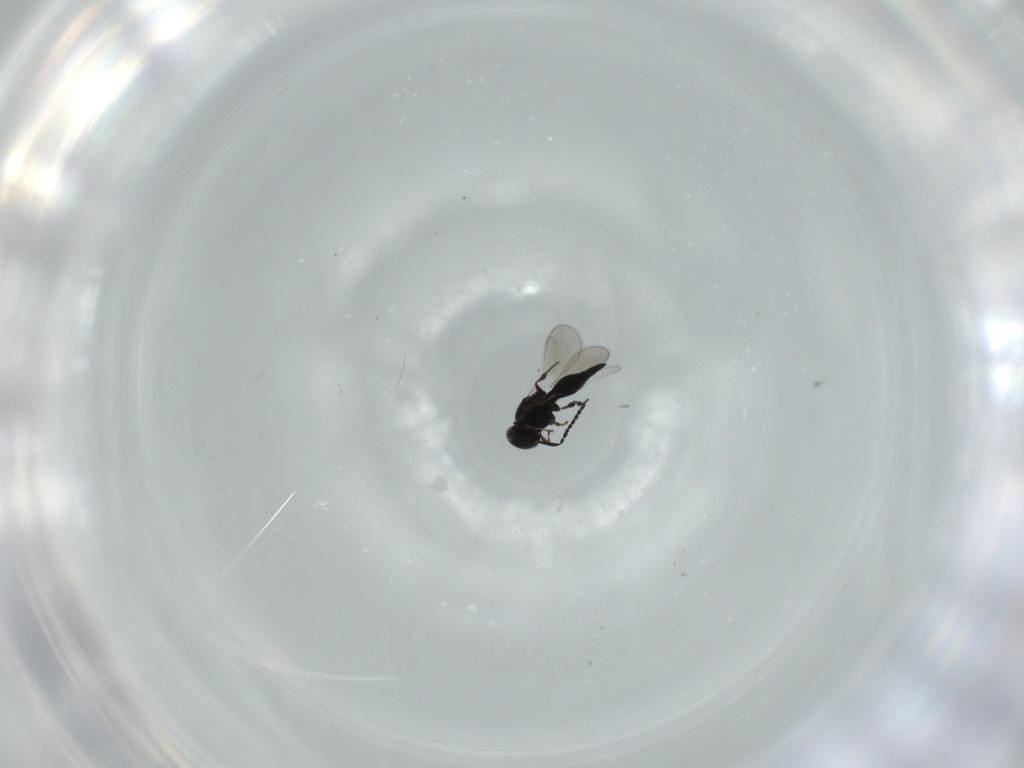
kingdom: Animalia
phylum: Arthropoda
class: Insecta
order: Hymenoptera
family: Platygastridae
